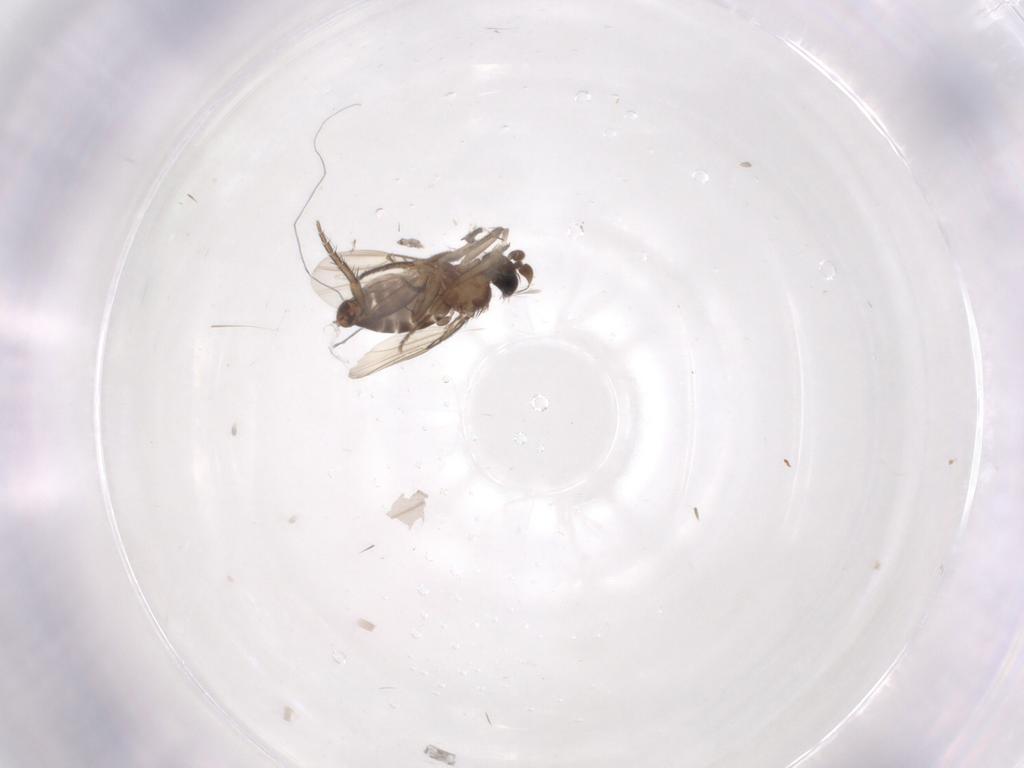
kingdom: Animalia
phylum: Arthropoda
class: Insecta
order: Diptera
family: Phoridae
